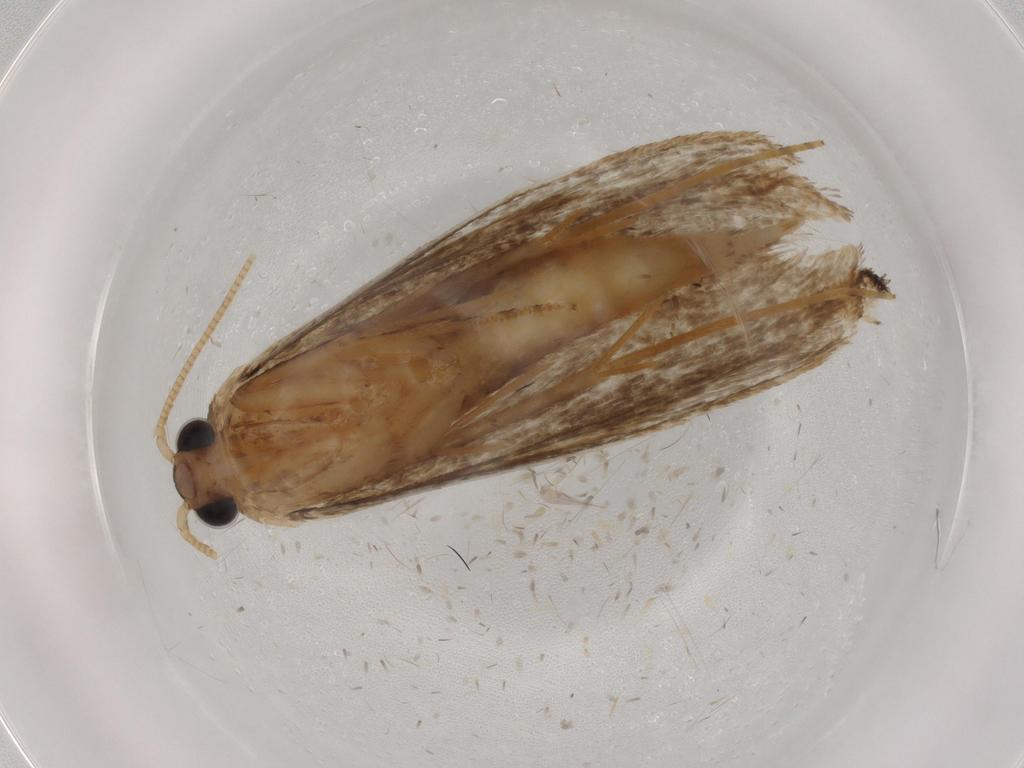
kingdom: Animalia
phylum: Arthropoda
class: Insecta
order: Lepidoptera
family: Tineidae
